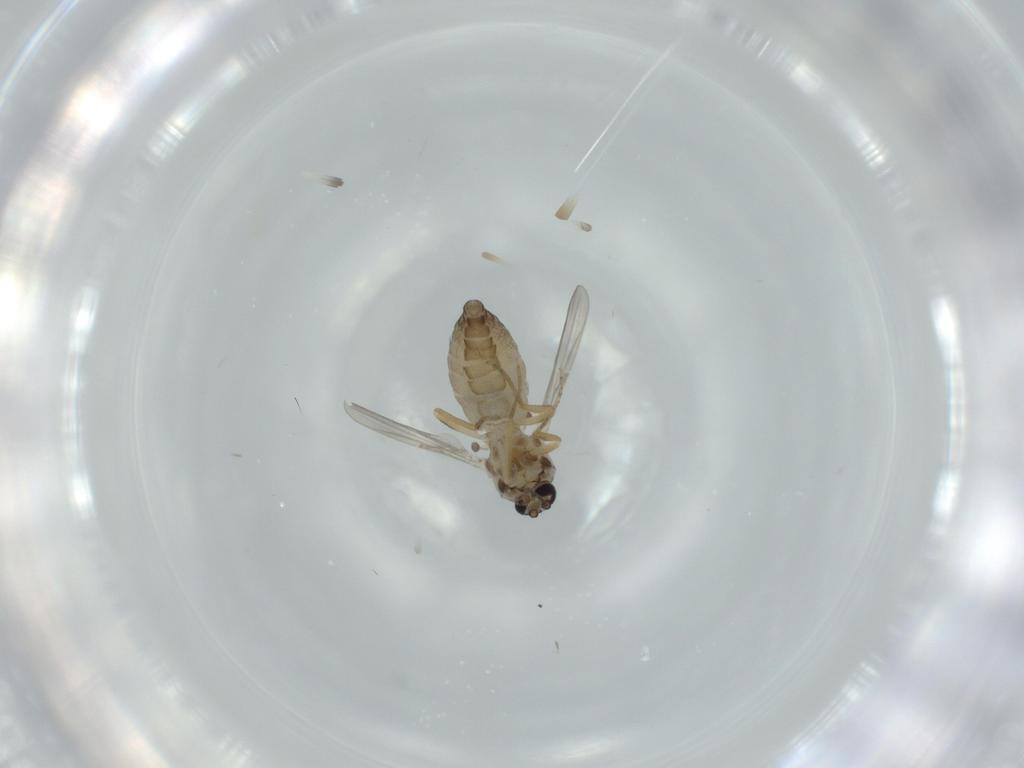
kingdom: Animalia
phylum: Arthropoda
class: Insecta
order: Diptera
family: Ceratopogonidae
